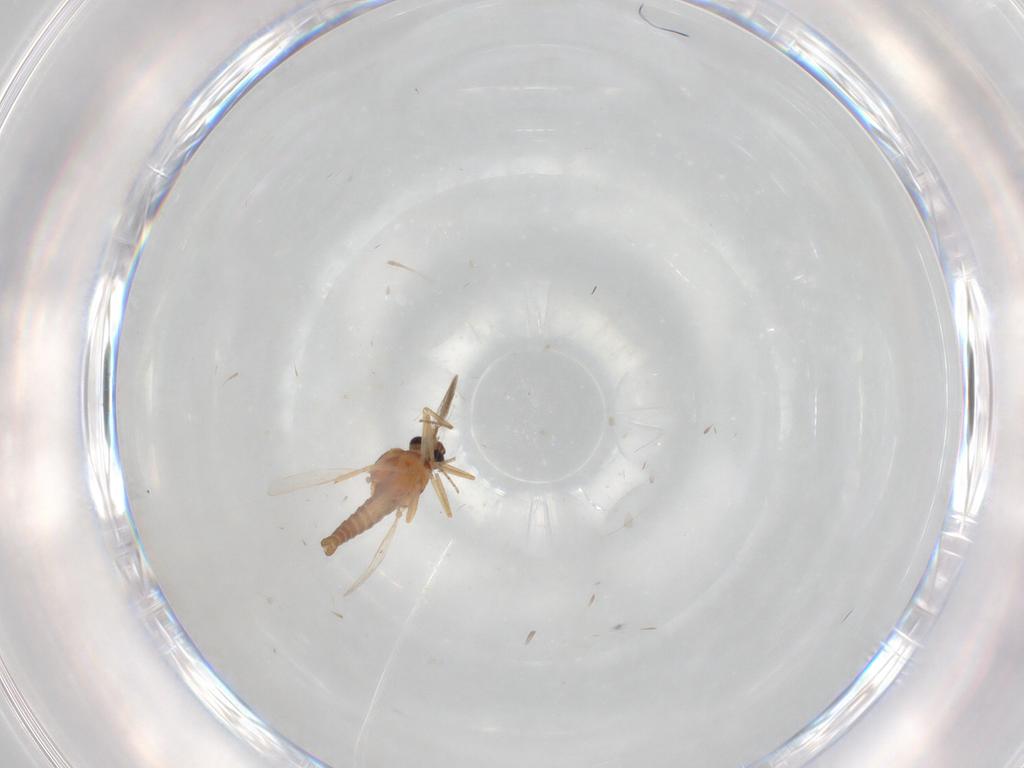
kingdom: Animalia
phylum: Arthropoda
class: Insecta
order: Diptera
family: Ceratopogonidae
